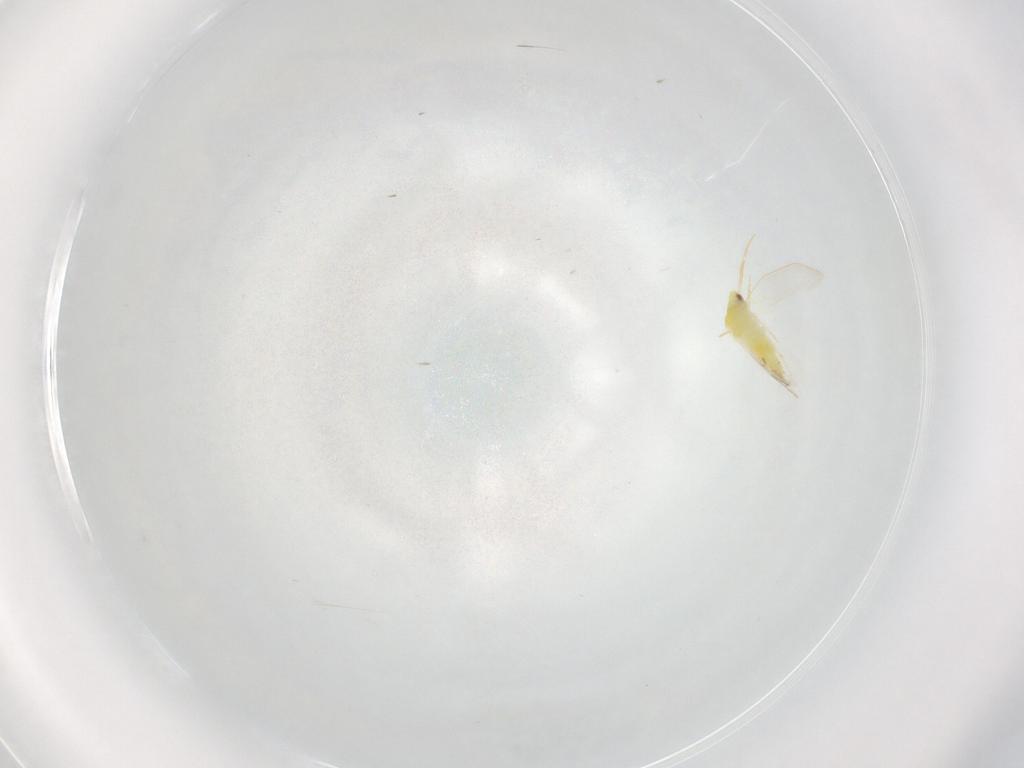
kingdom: Animalia
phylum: Arthropoda
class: Insecta
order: Hemiptera
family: Aleyrodidae
